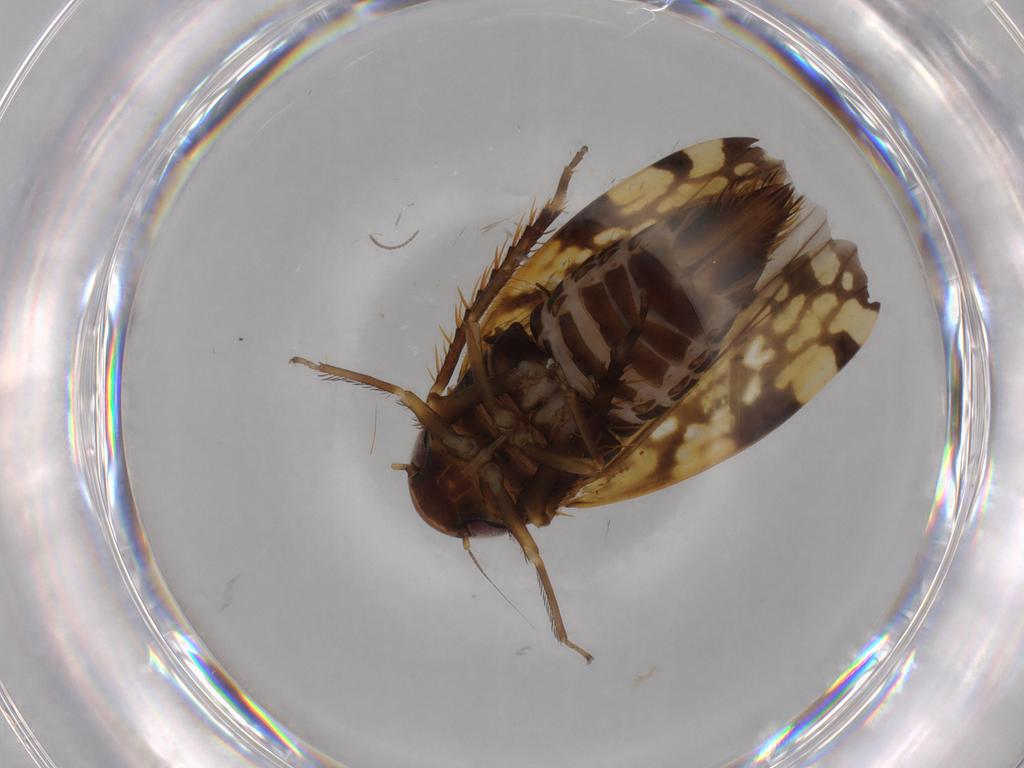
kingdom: Animalia
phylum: Arthropoda
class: Insecta
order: Hemiptera
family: Cicadellidae
